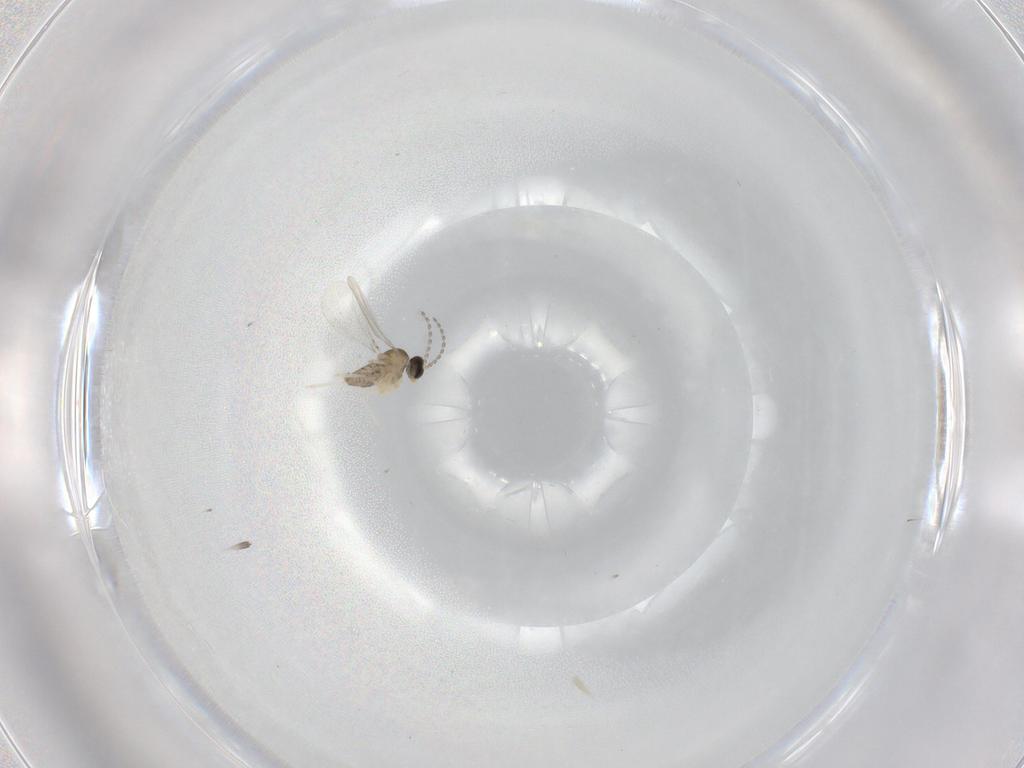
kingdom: Animalia
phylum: Arthropoda
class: Insecta
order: Diptera
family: Cecidomyiidae
